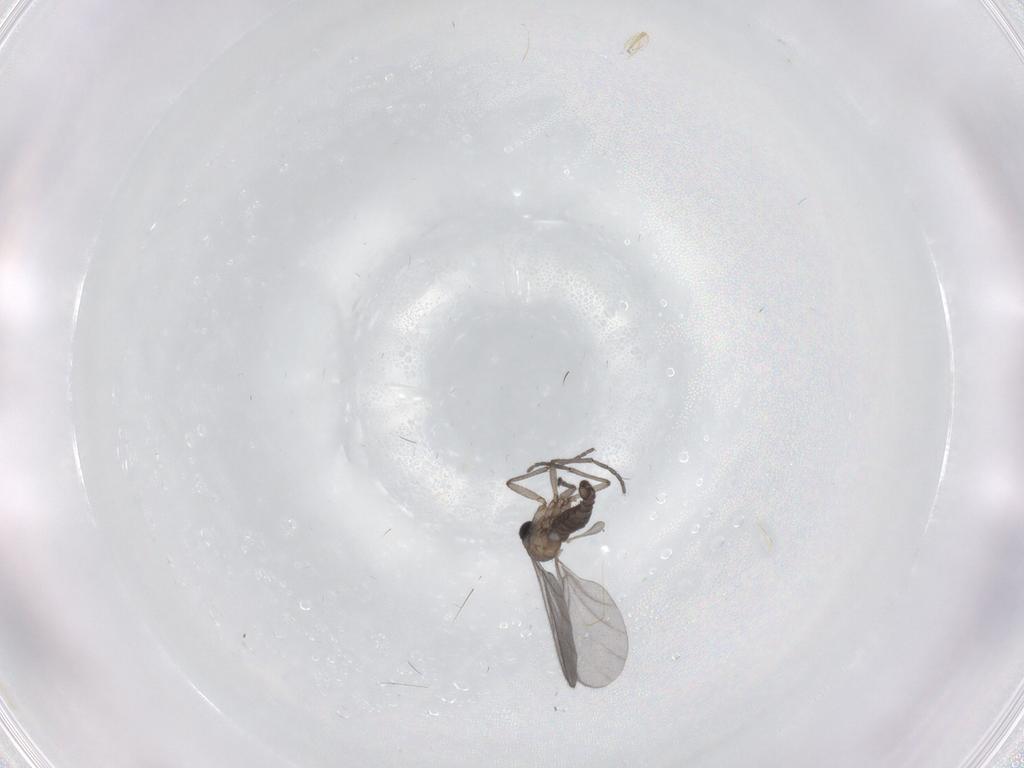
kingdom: Animalia
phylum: Arthropoda
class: Insecta
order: Diptera
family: Sciaridae
